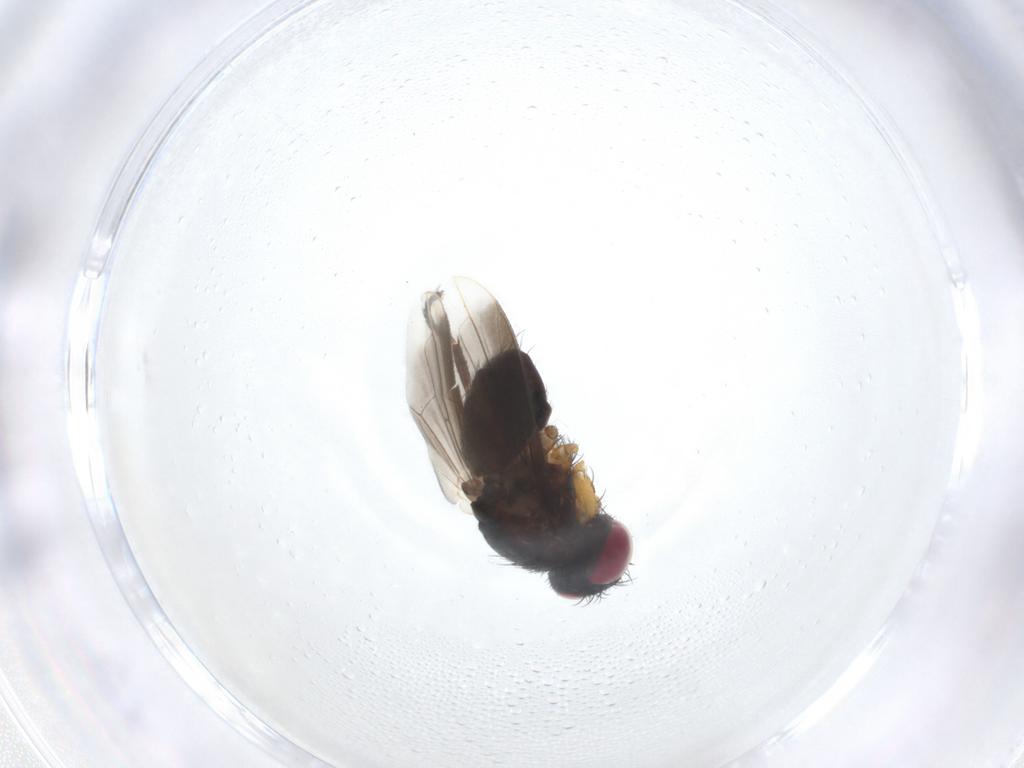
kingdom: Animalia
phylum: Arthropoda
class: Insecta
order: Diptera
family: Tachinidae
